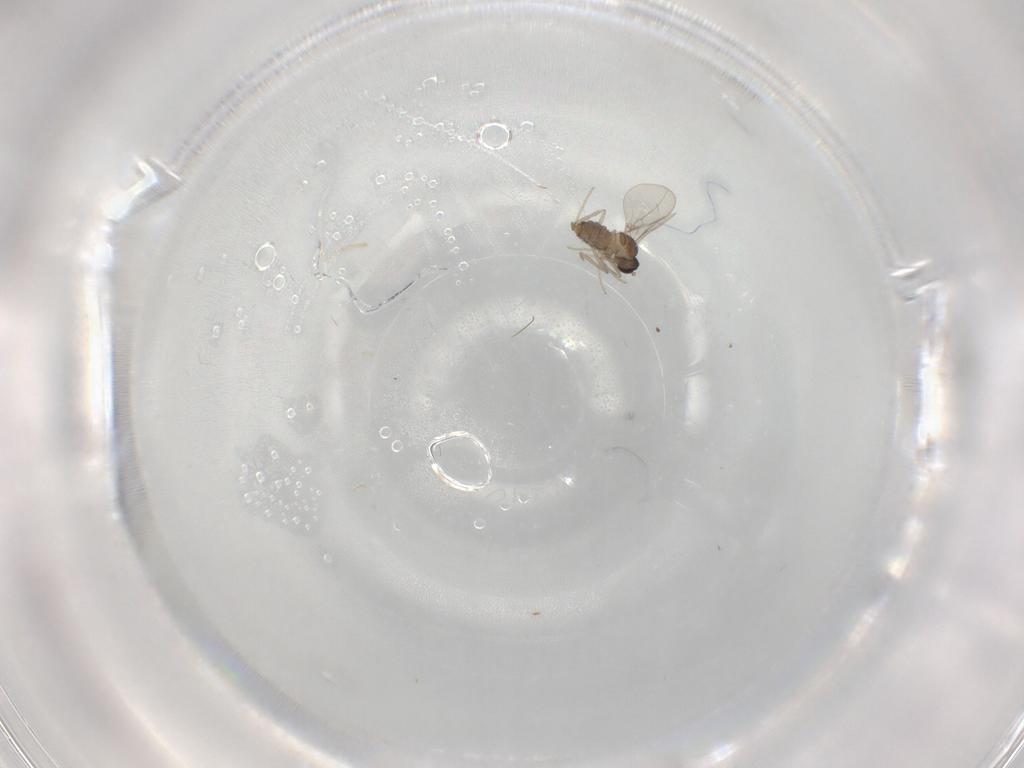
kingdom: Animalia
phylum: Arthropoda
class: Insecta
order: Diptera
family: Cecidomyiidae
